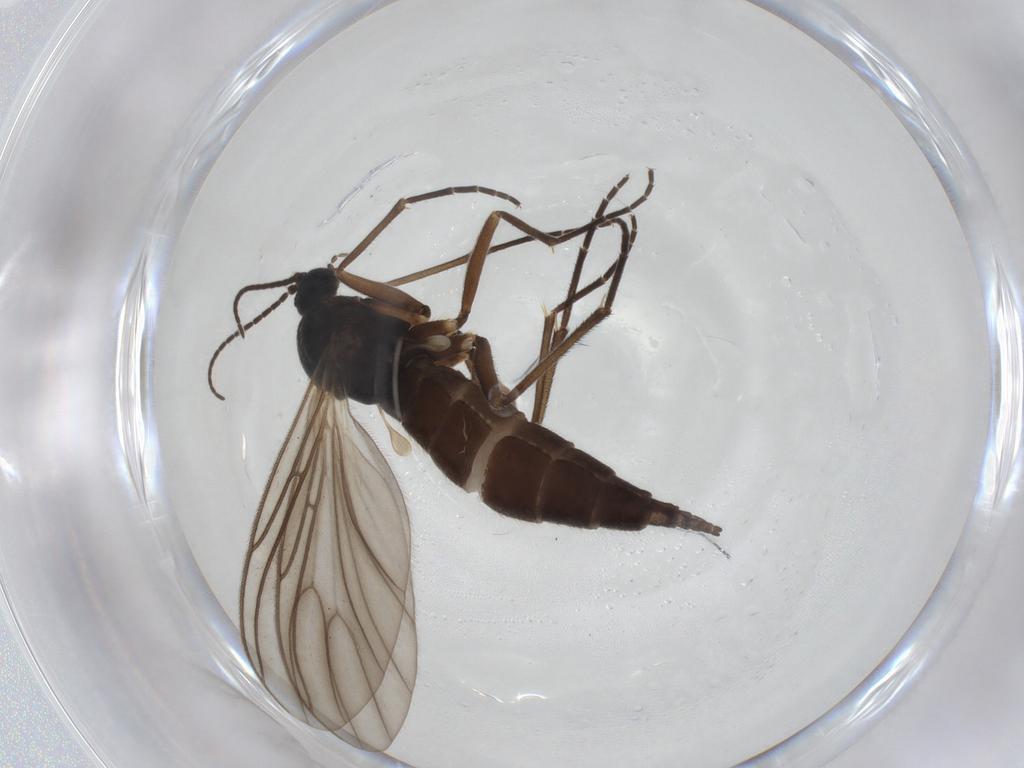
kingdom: Animalia
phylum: Arthropoda
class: Insecta
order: Diptera
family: Sciaridae
